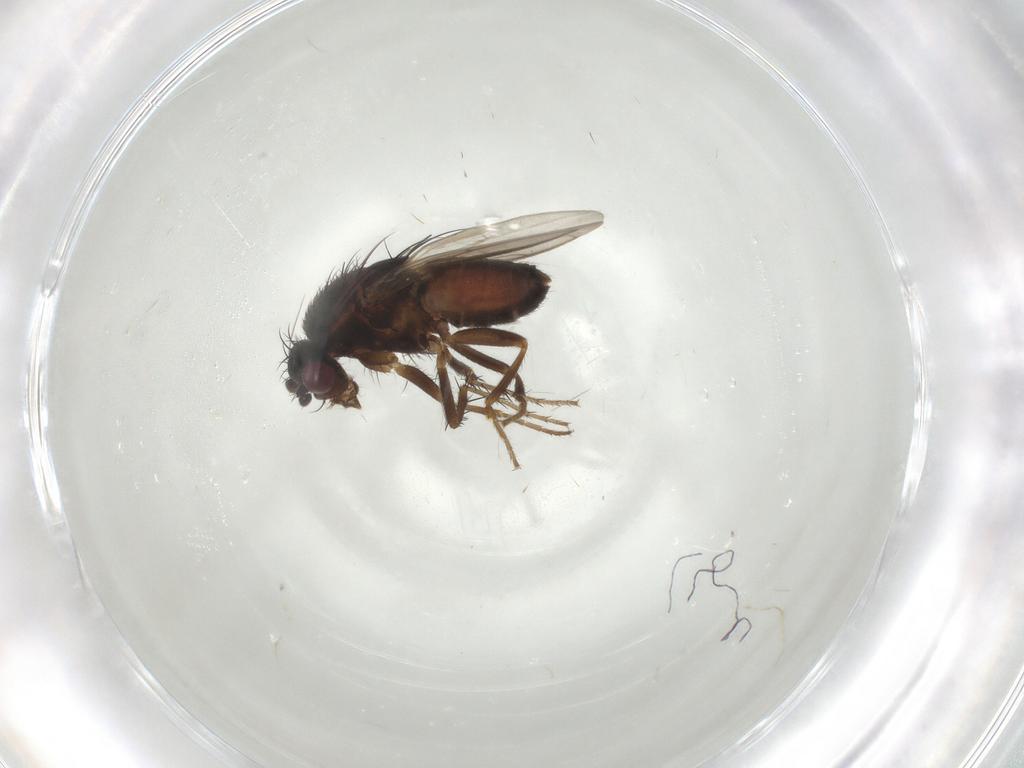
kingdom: Animalia
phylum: Arthropoda
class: Insecta
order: Diptera
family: Sphaeroceridae
